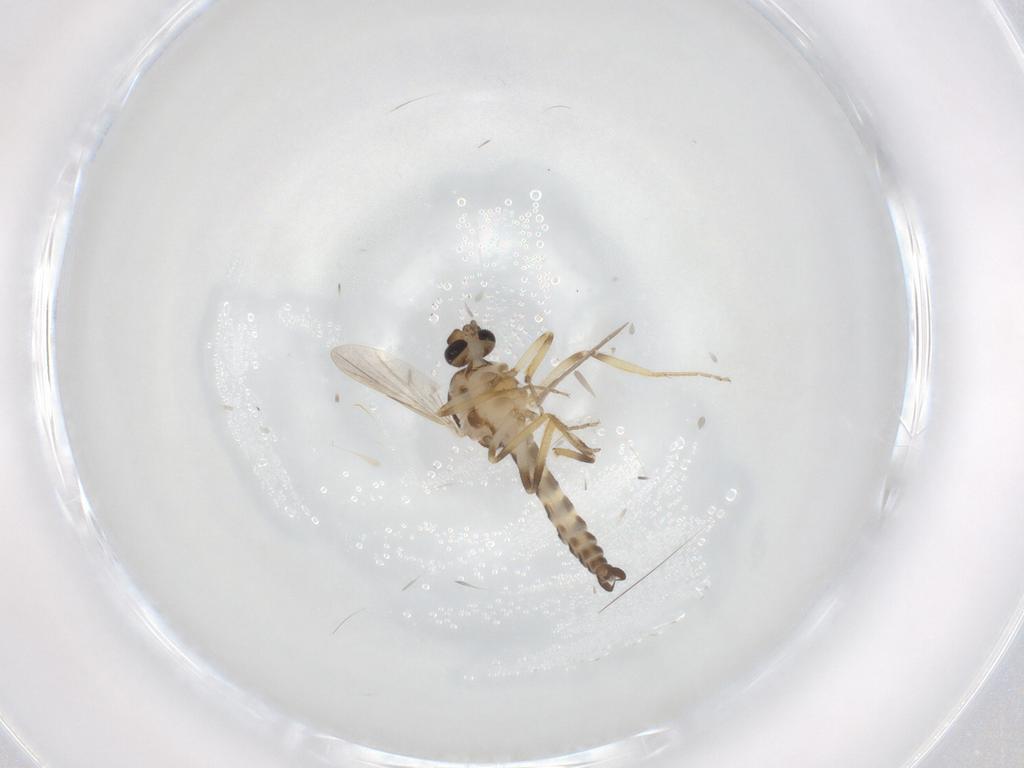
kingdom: Animalia
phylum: Arthropoda
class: Insecta
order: Diptera
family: Ceratopogonidae
